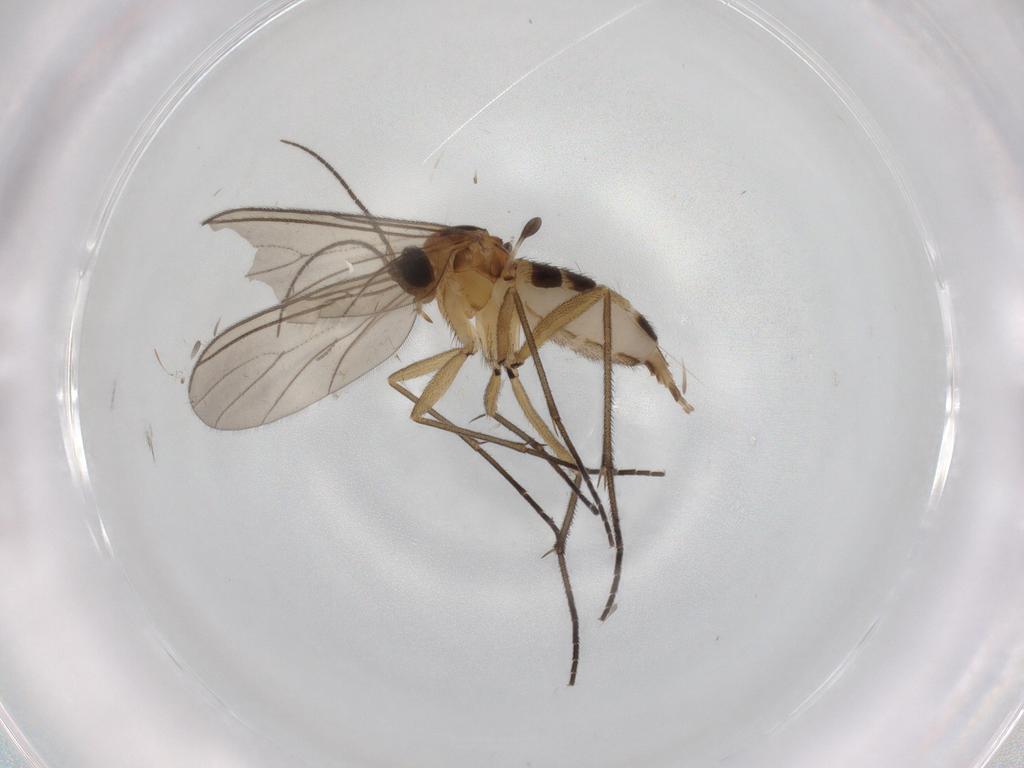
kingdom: Animalia
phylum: Arthropoda
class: Insecta
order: Diptera
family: Cecidomyiidae
